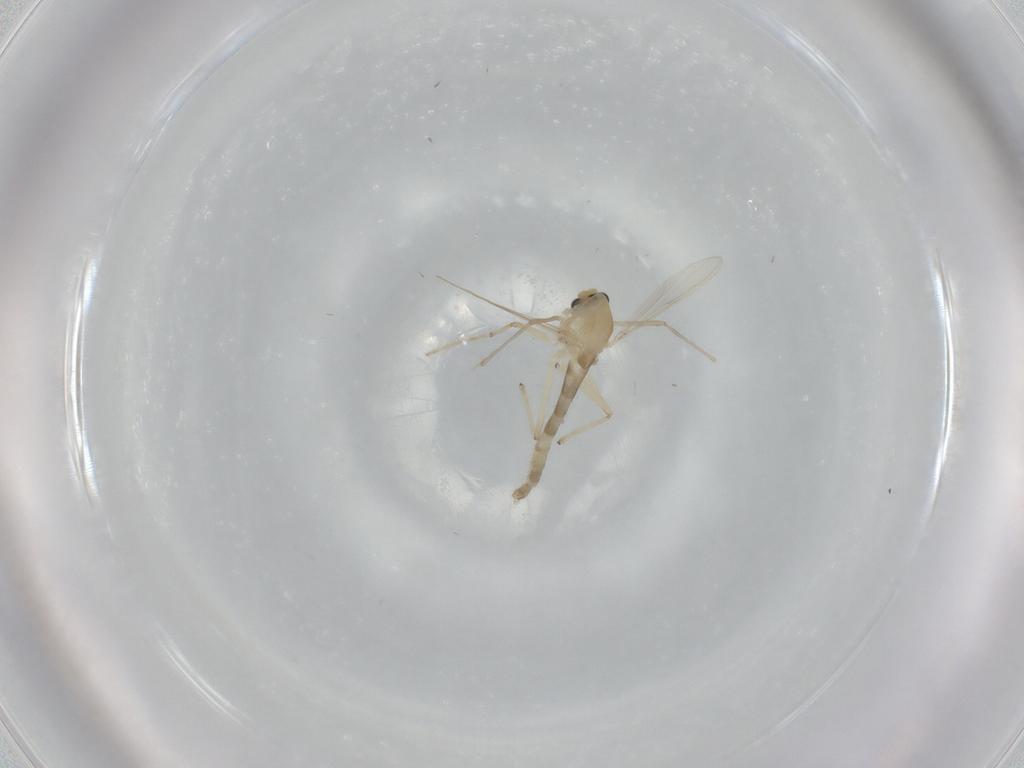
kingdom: Animalia
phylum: Arthropoda
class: Insecta
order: Diptera
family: Chironomidae
